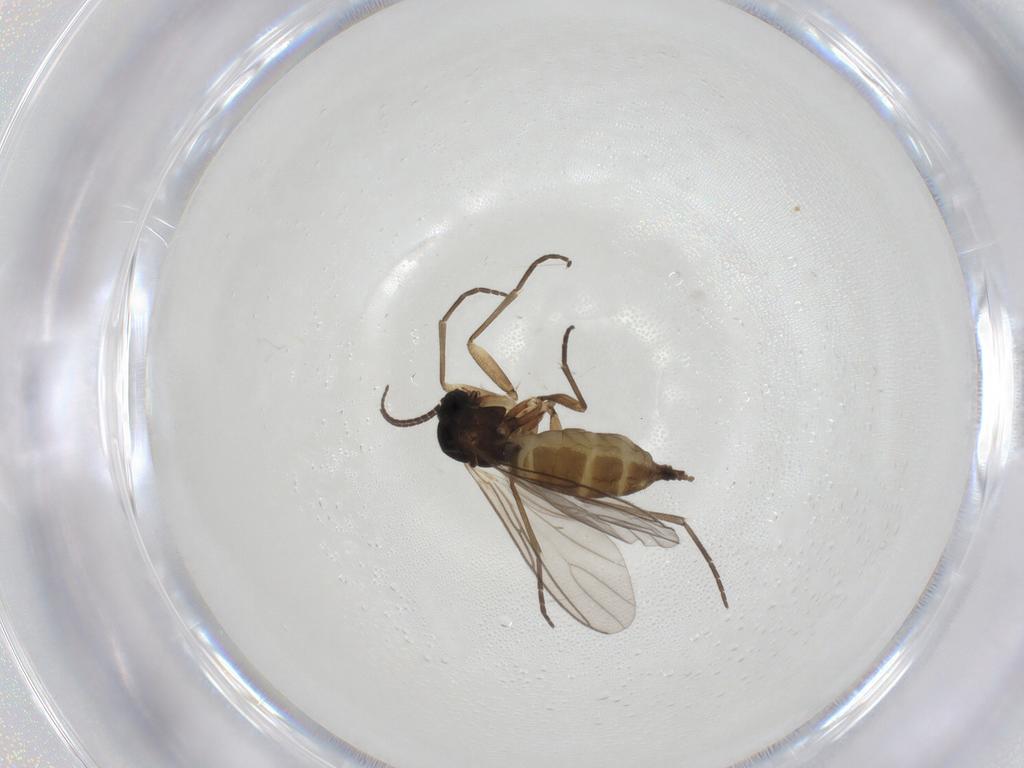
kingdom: Animalia
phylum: Arthropoda
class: Insecta
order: Diptera
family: Sciaridae
